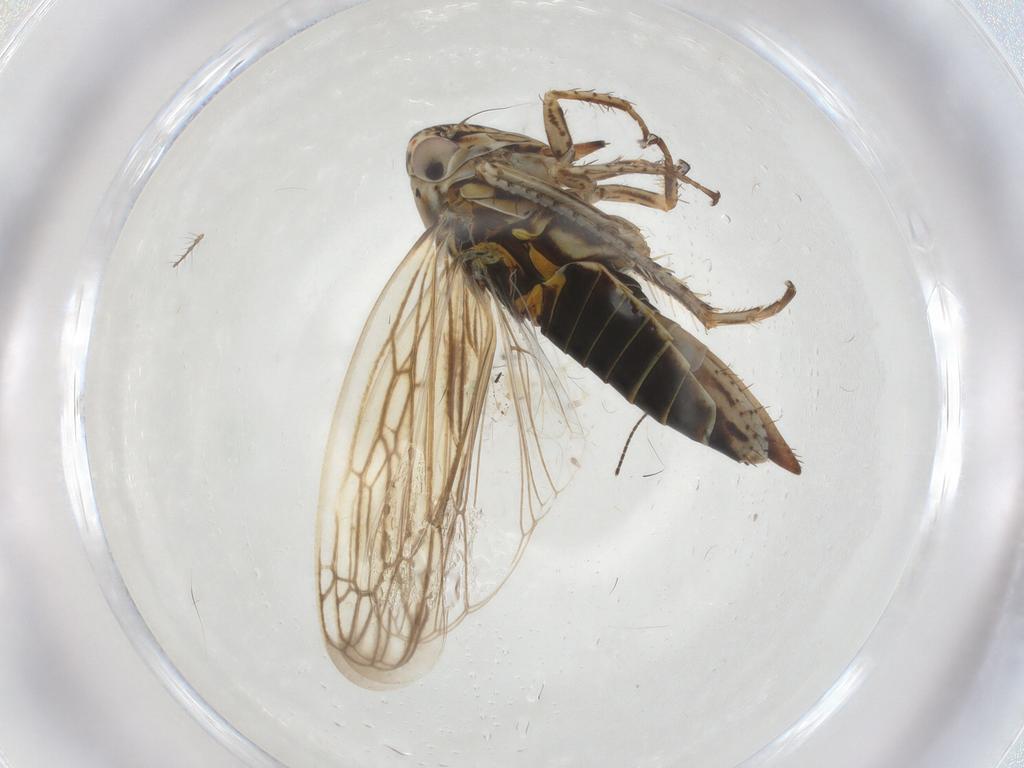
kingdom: Animalia
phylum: Arthropoda
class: Insecta
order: Hemiptera
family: Aphididae
